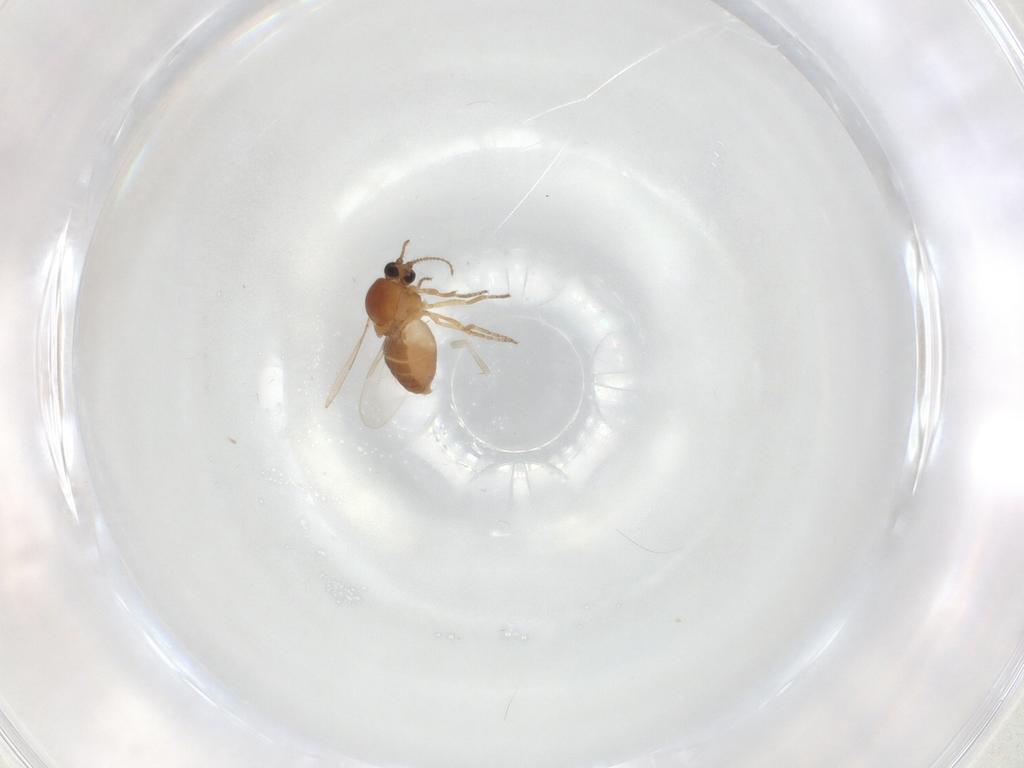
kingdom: Animalia
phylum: Arthropoda
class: Insecta
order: Diptera
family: Ceratopogonidae
